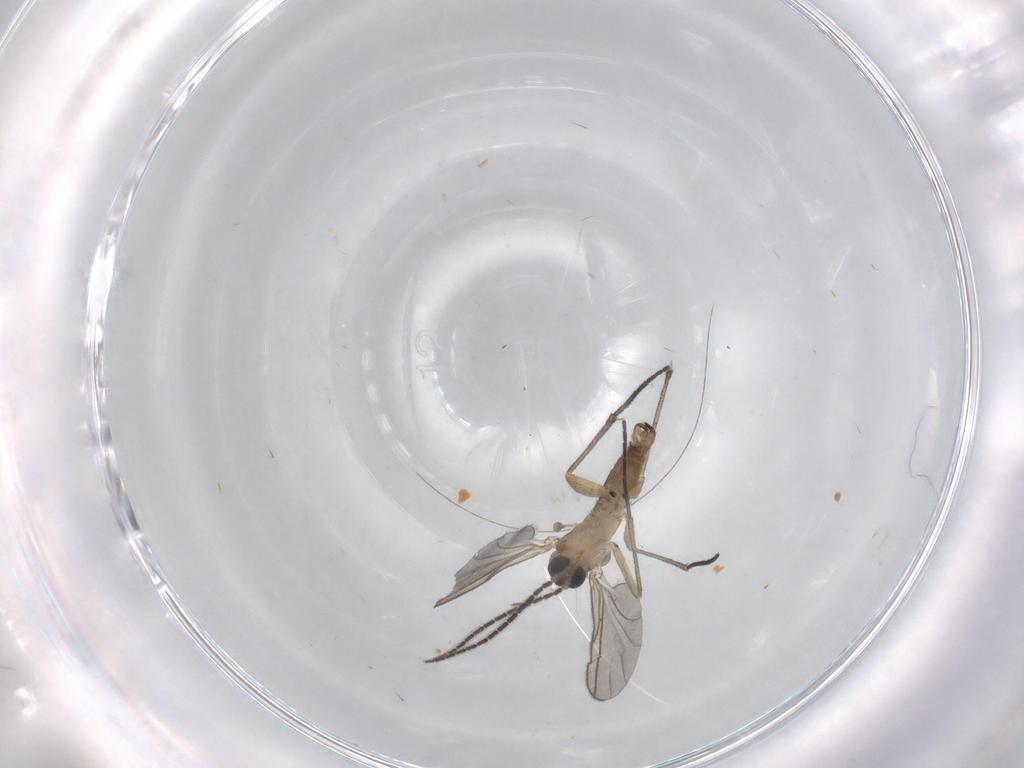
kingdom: Animalia
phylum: Arthropoda
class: Insecta
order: Diptera
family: Sciaridae
